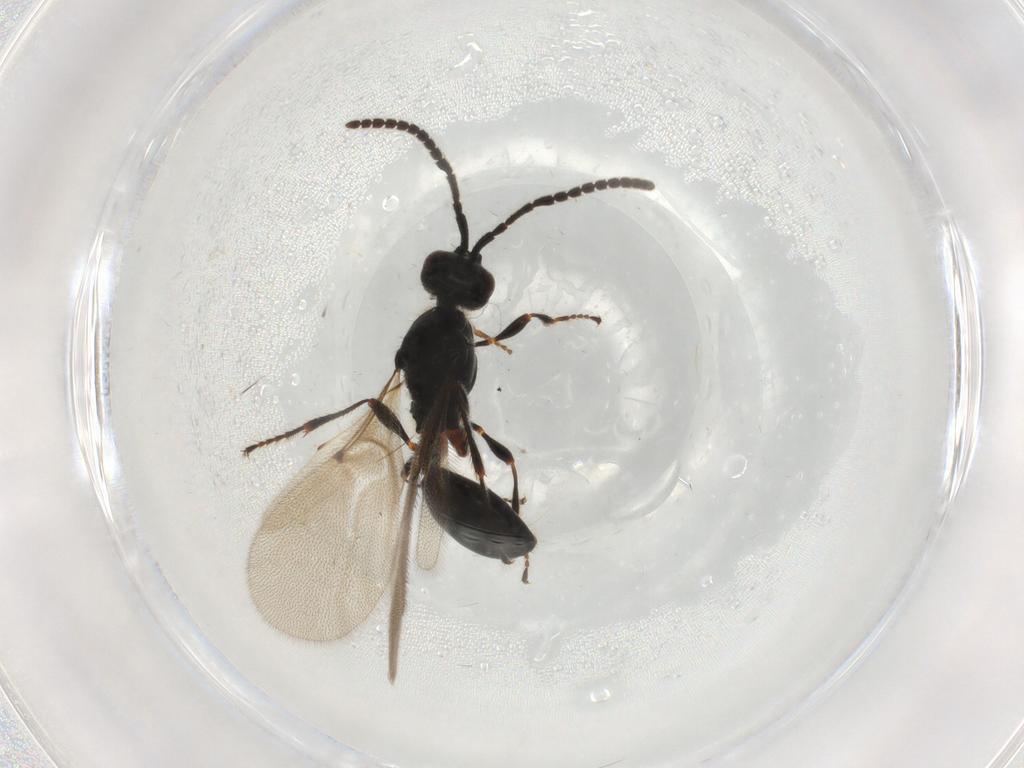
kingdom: Animalia
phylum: Arthropoda
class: Insecta
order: Hymenoptera
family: Diapriidae
